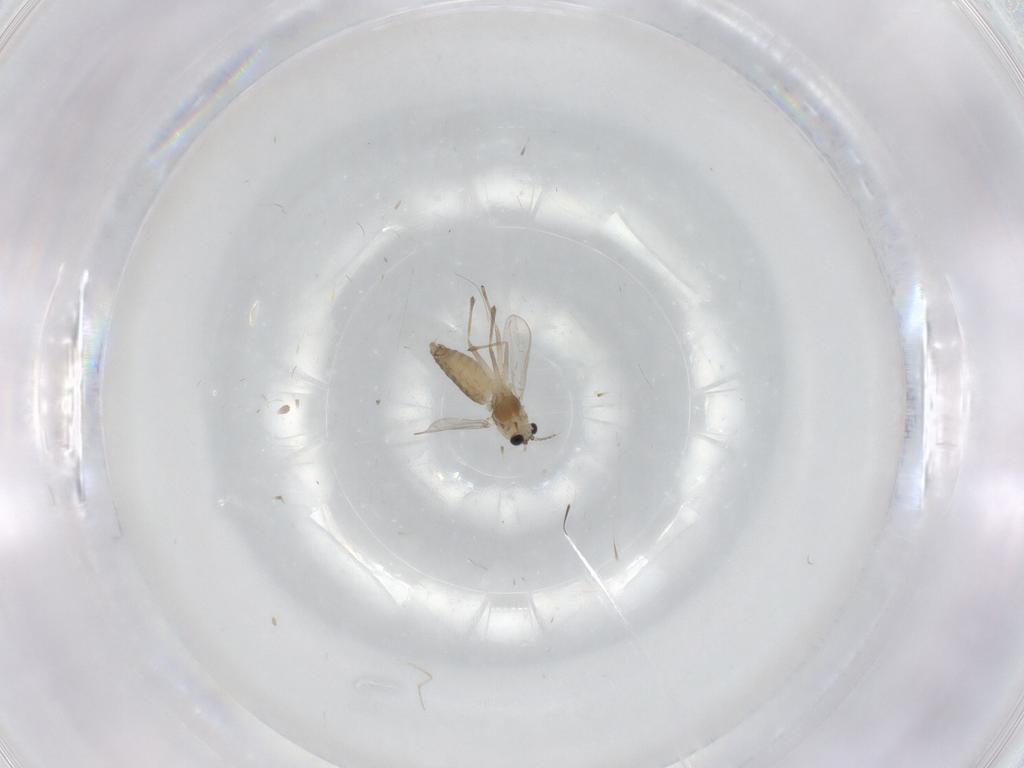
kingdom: Animalia
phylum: Arthropoda
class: Insecta
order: Diptera
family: Chironomidae
